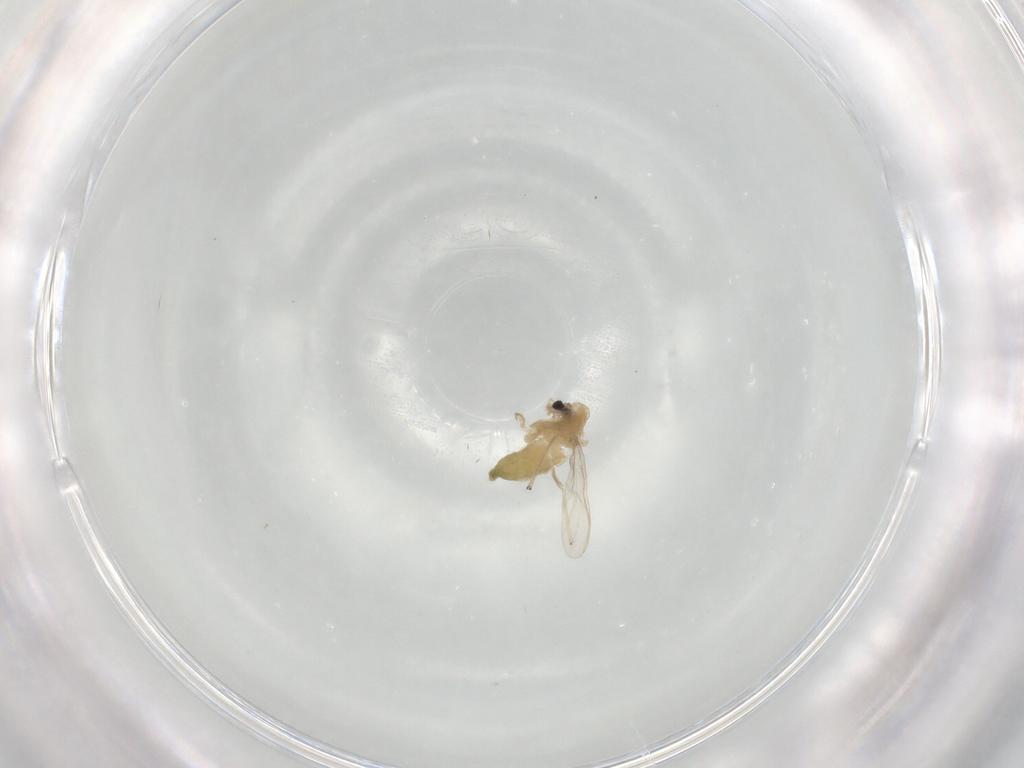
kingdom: Animalia
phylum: Arthropoda
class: Insecta
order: Diptera
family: Chironomidae
